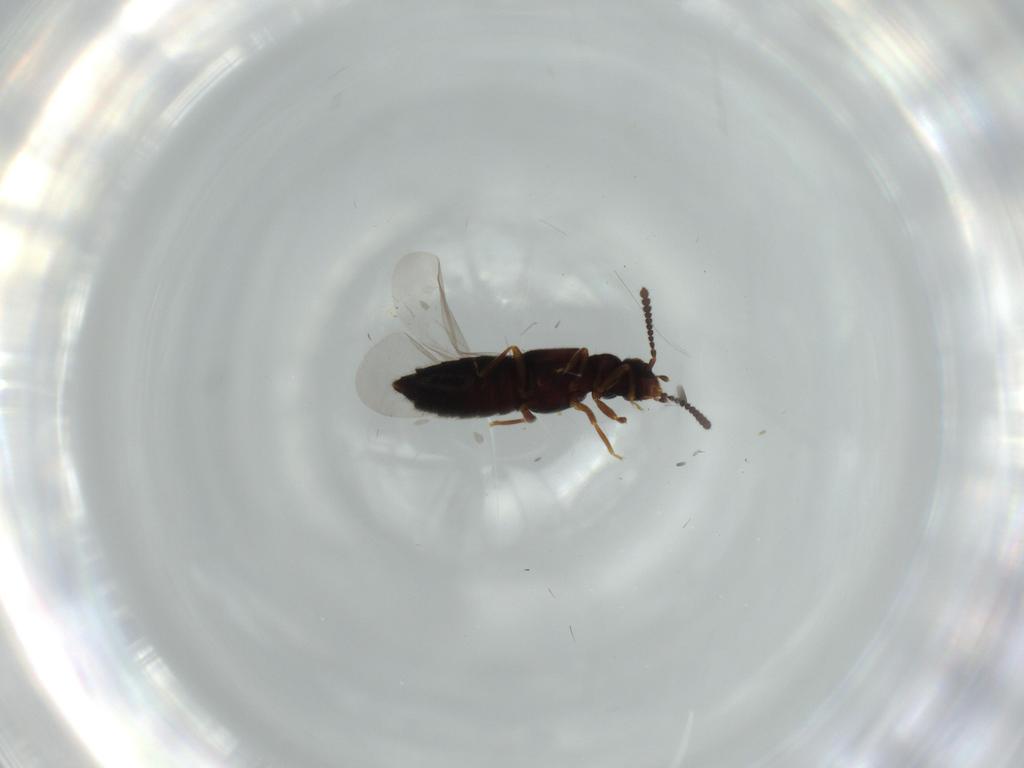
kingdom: Animalia
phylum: Arthropoda
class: Insecta
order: Coleoptera
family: Staphylinidae
